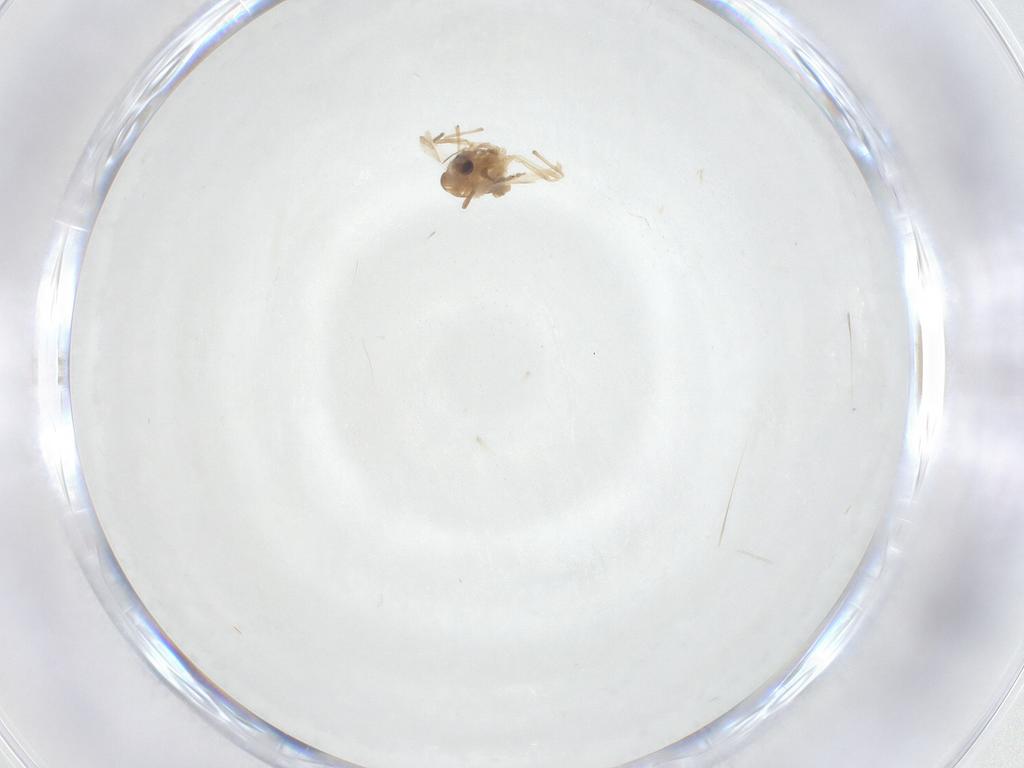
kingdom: Animalia
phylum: Arthropoda
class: Insecta
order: Diptera
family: Chironomidae
